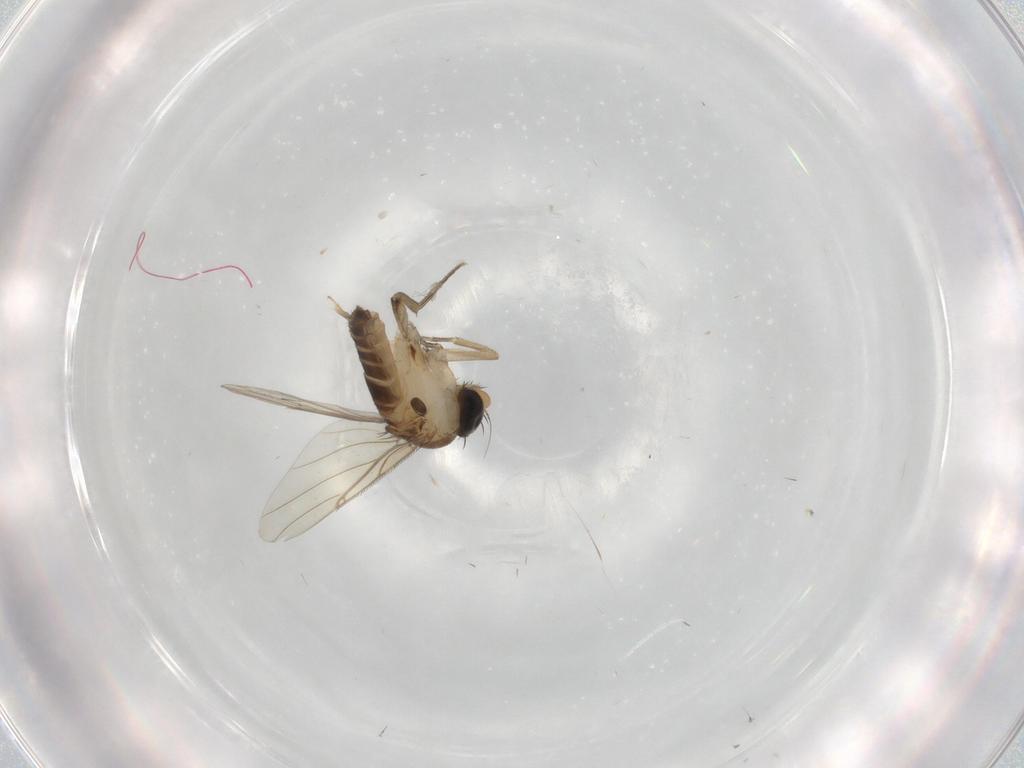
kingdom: Animalia
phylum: Arthropoda
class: Insecta
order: Diptera
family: Phoridae
